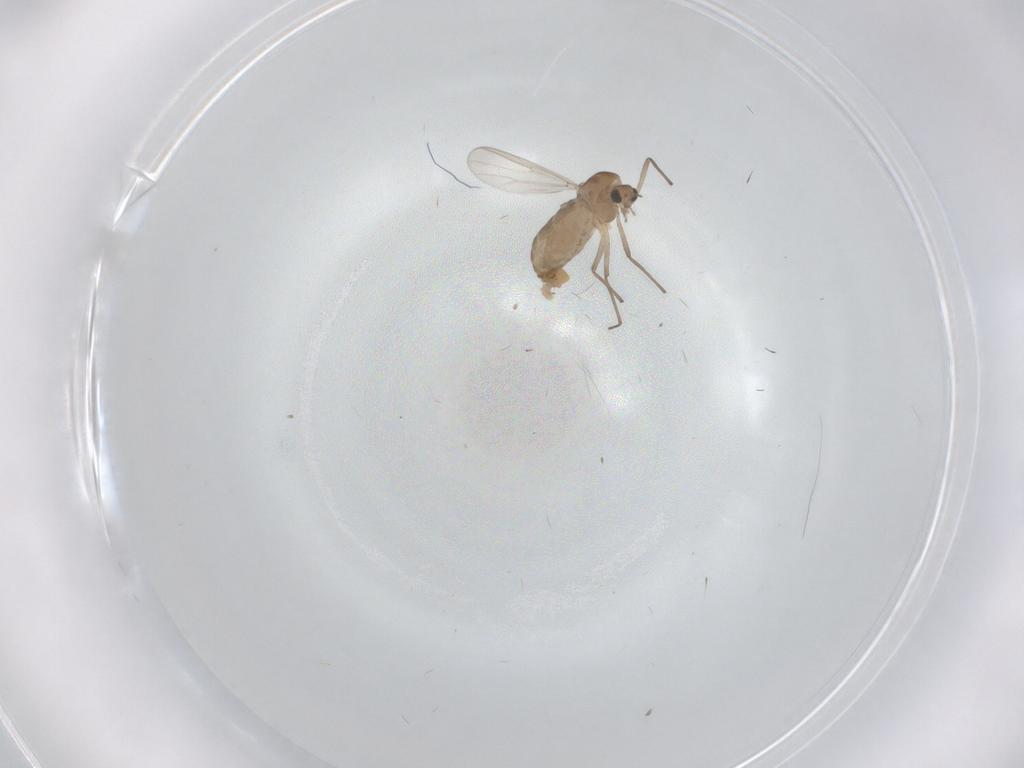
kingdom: Animalia
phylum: Arthropoda
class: Insecta
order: Diptera
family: Chironomidae
